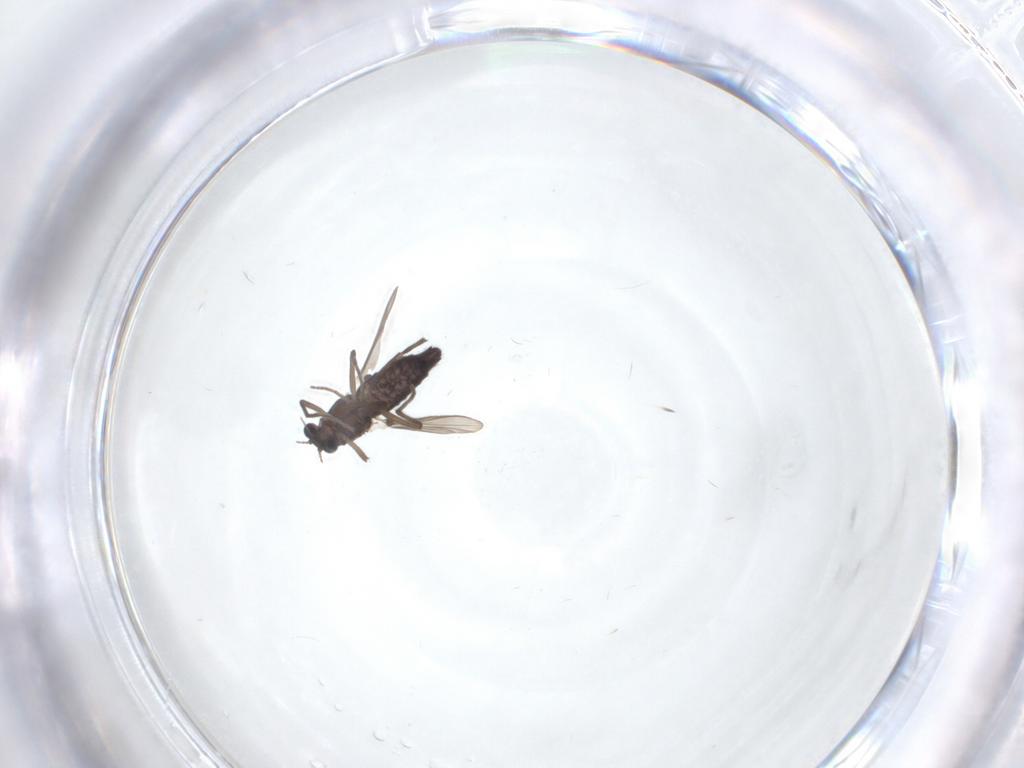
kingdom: Animalia
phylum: Arthropoda
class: Insecta
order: Diptera
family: Chironomidae
